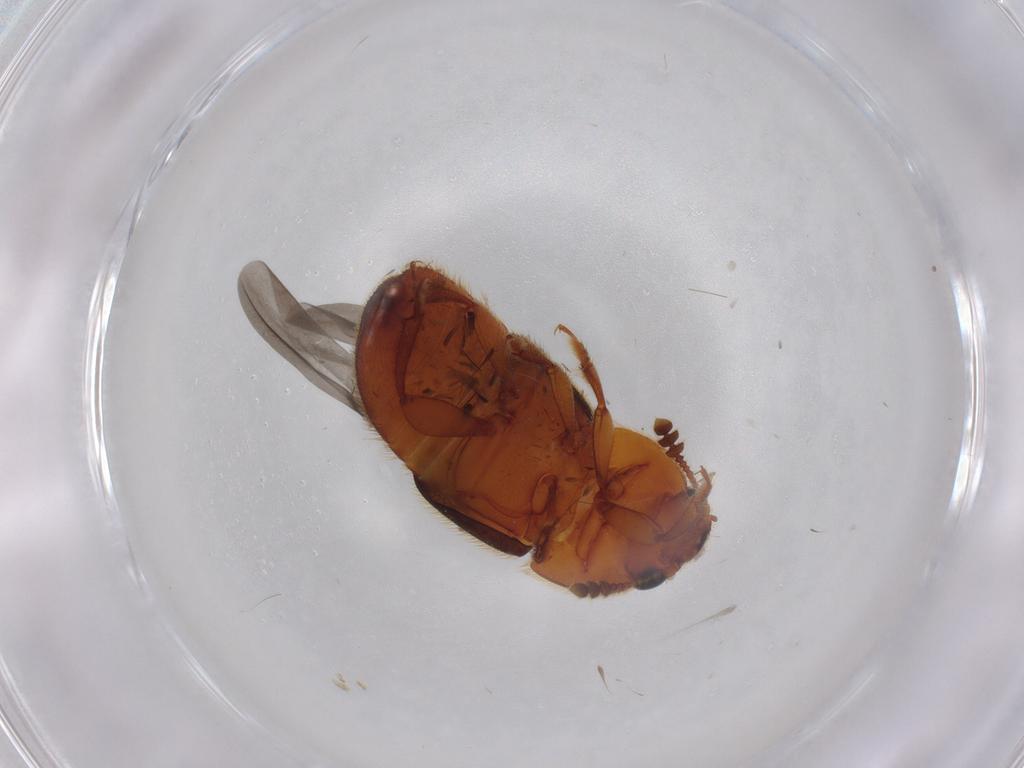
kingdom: Animalia
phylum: Arthropoda
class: Insecta
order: Coleoptera
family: Nitidulidae
